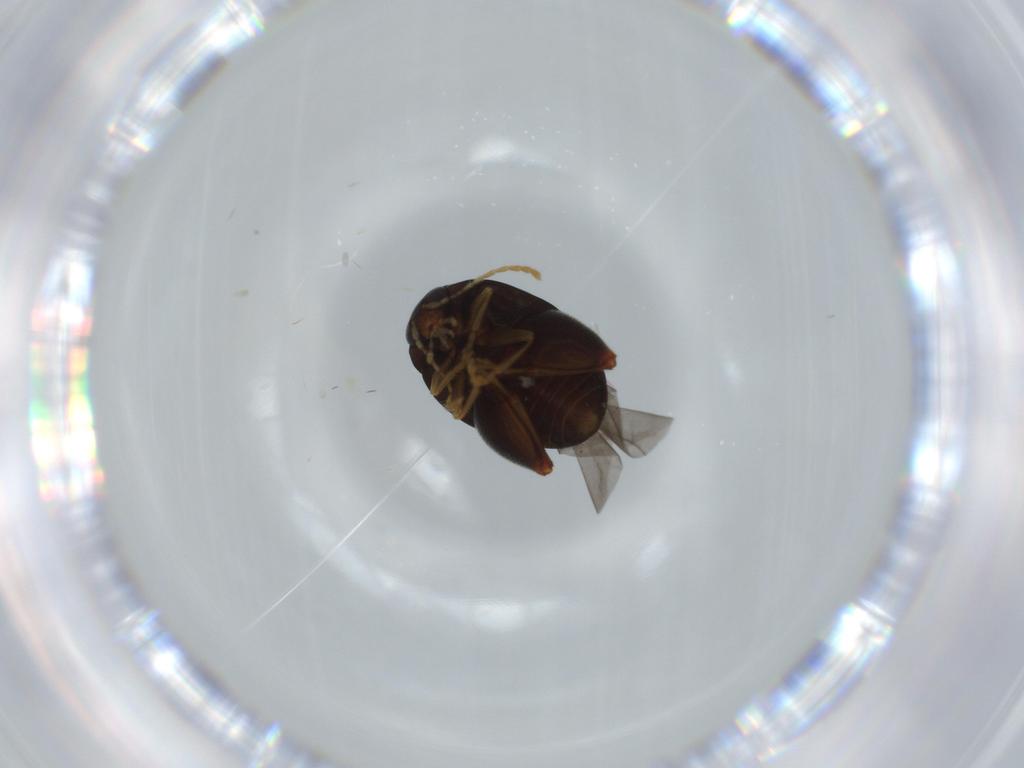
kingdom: Animalia
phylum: Arthropoda
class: Insecta
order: Coleoptera
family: Chrysomelidae
